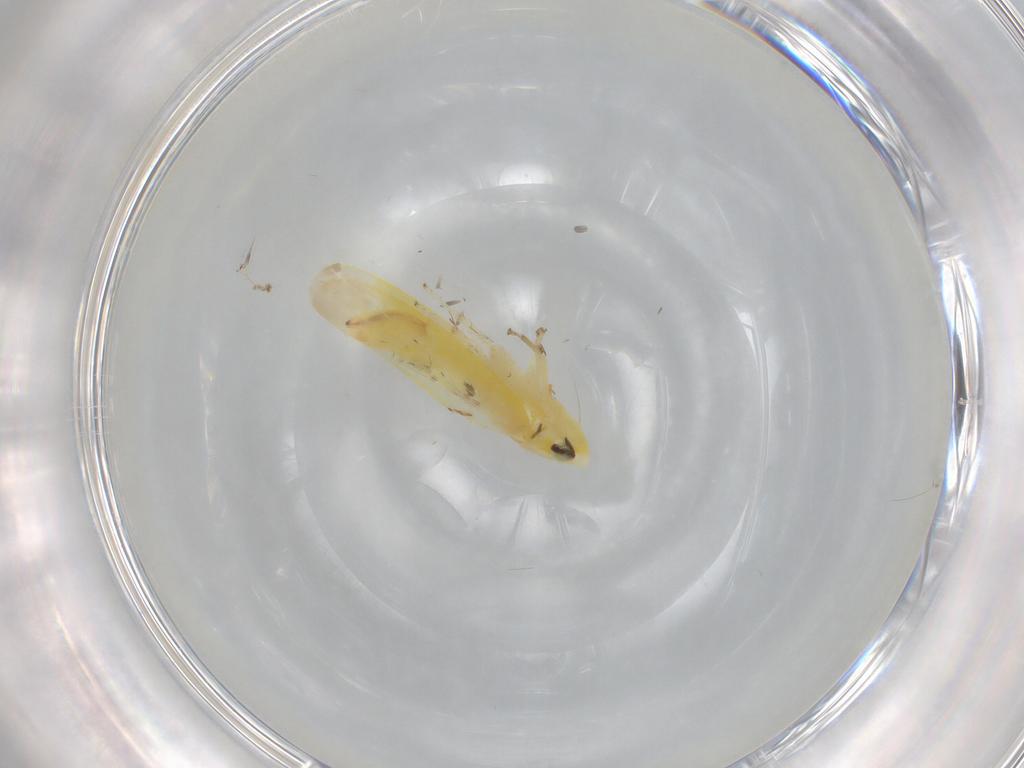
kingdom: Animalia
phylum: Arthropoda
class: Insecta
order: Hemiptera
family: Cicadellidae
